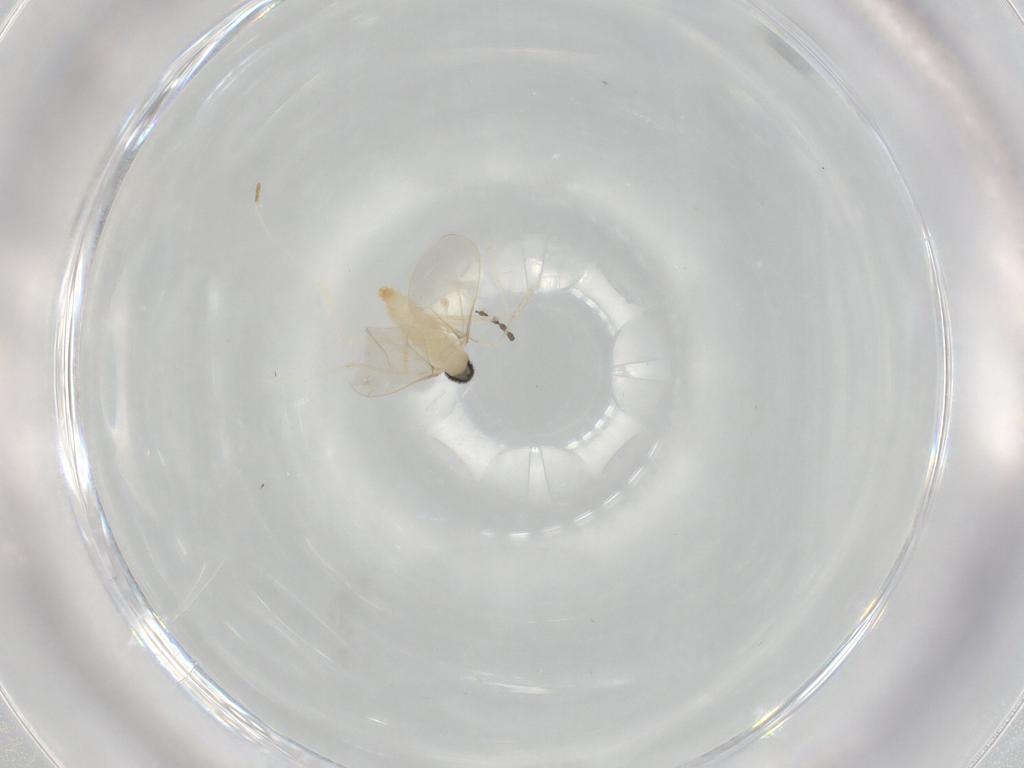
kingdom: Animalia
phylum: Arthropoda
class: Insecta
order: Diptera
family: Cecidomyiidae
